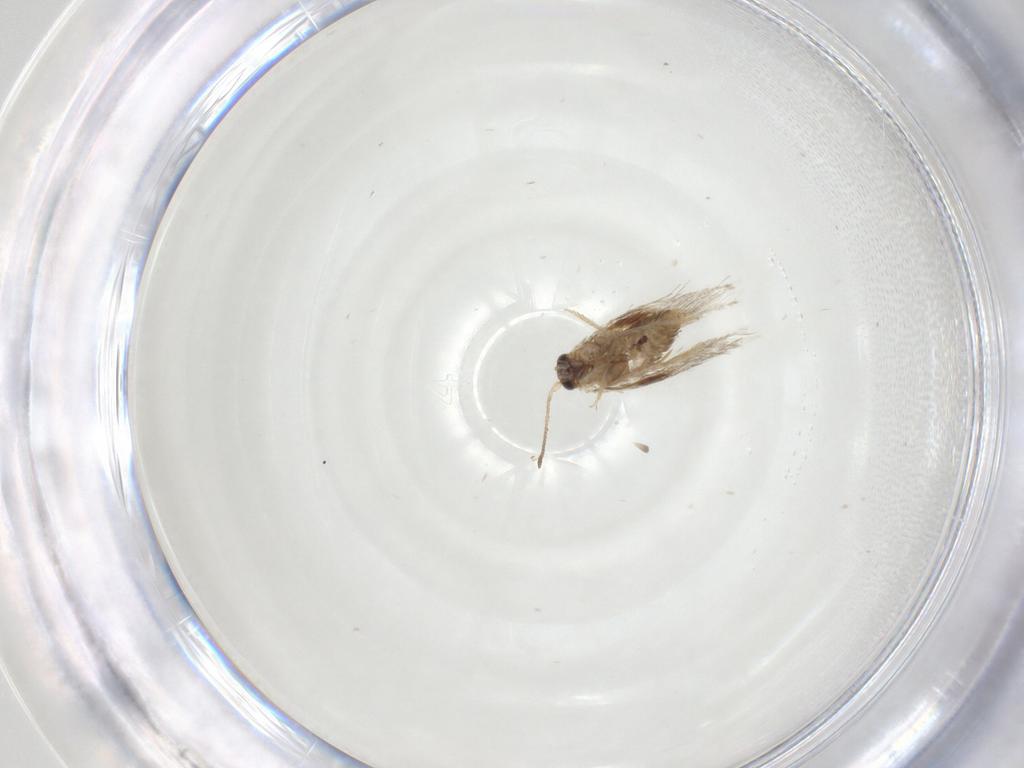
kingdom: Animalia
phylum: Arthropoda
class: Insecta
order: Lepidoptera
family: Nepticulidae
